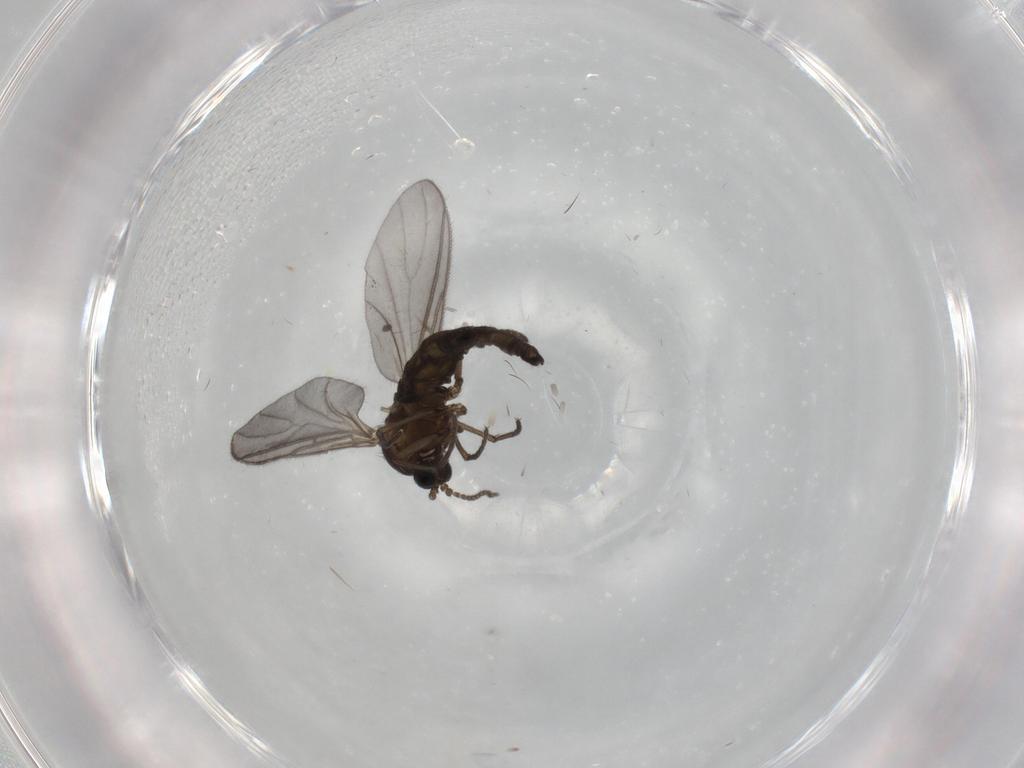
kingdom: Animalia
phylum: Arthropoda
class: Insecta
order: Diptera
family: Sciaridae
